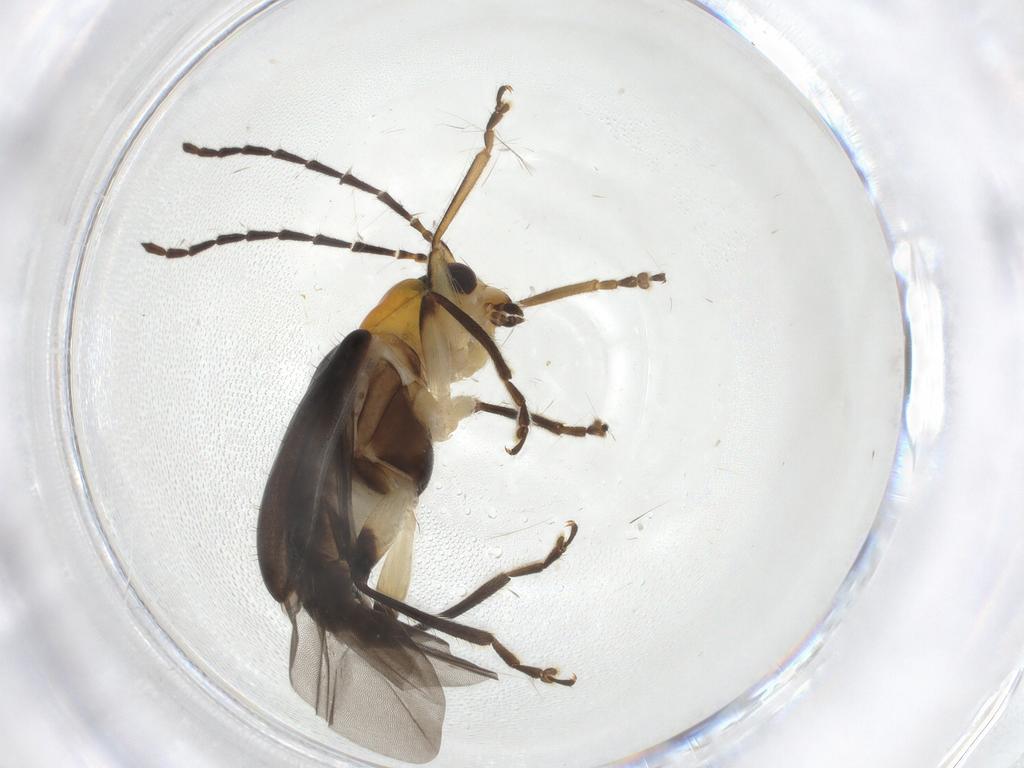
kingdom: Animalia
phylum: Arthropoda
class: Insecta
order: Coleoptera
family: Chrysomelidae
